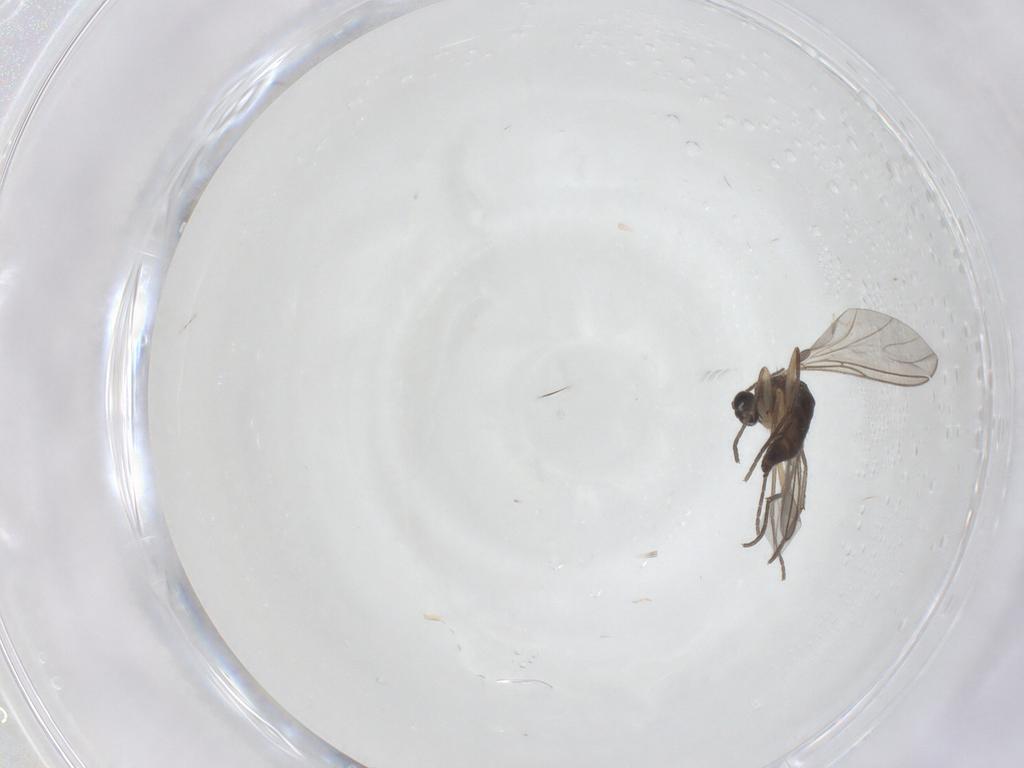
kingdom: Animalia
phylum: Arthropoda
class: Insecta
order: Diptera
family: Sciaridae
